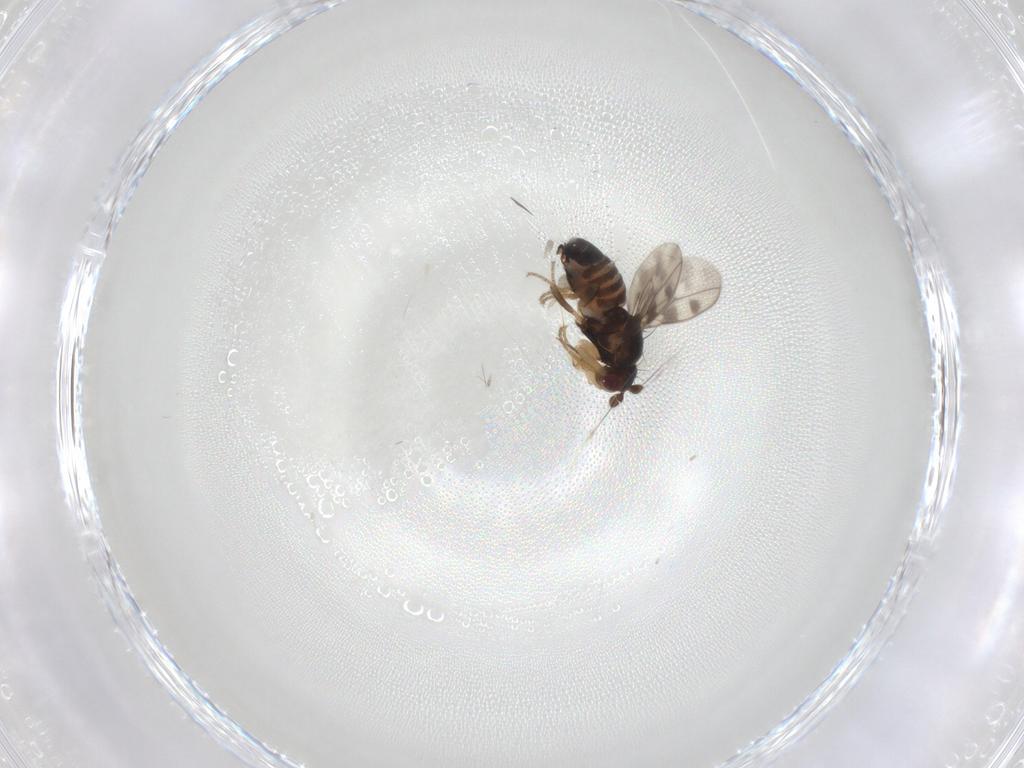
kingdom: Animalia
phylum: Arthropoda
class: Insecta
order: Diptera
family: Sphaeroceridae
